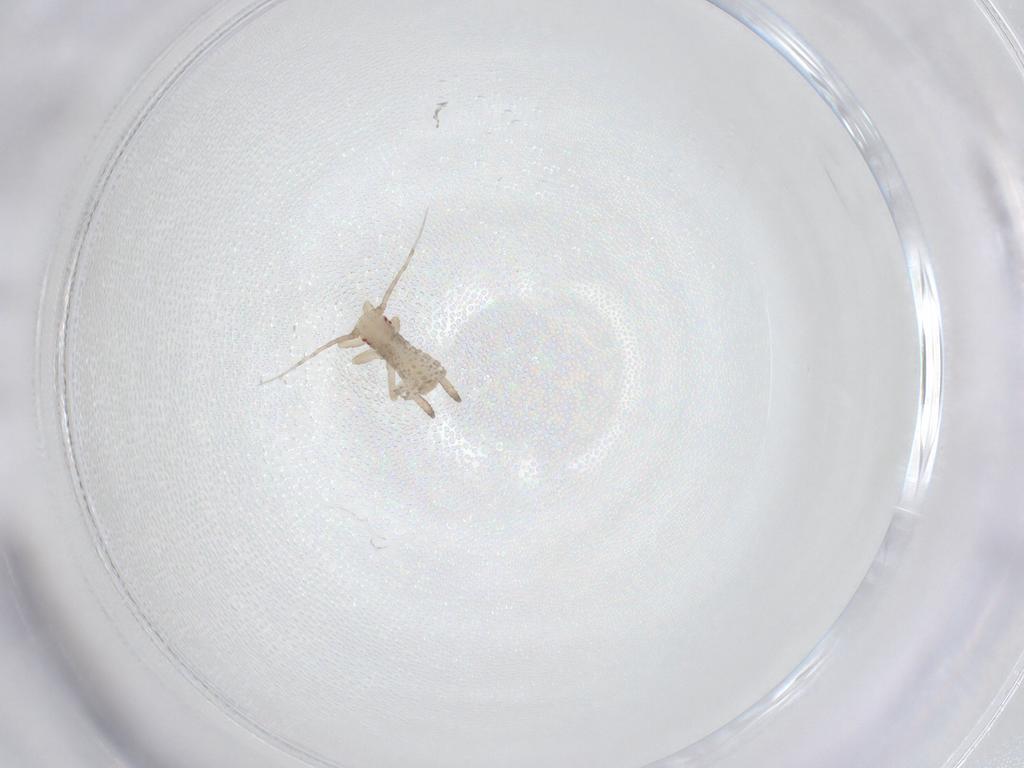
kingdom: Animalia
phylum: Arthropoda
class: Insecta
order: Hemiptera
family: Aphididae
